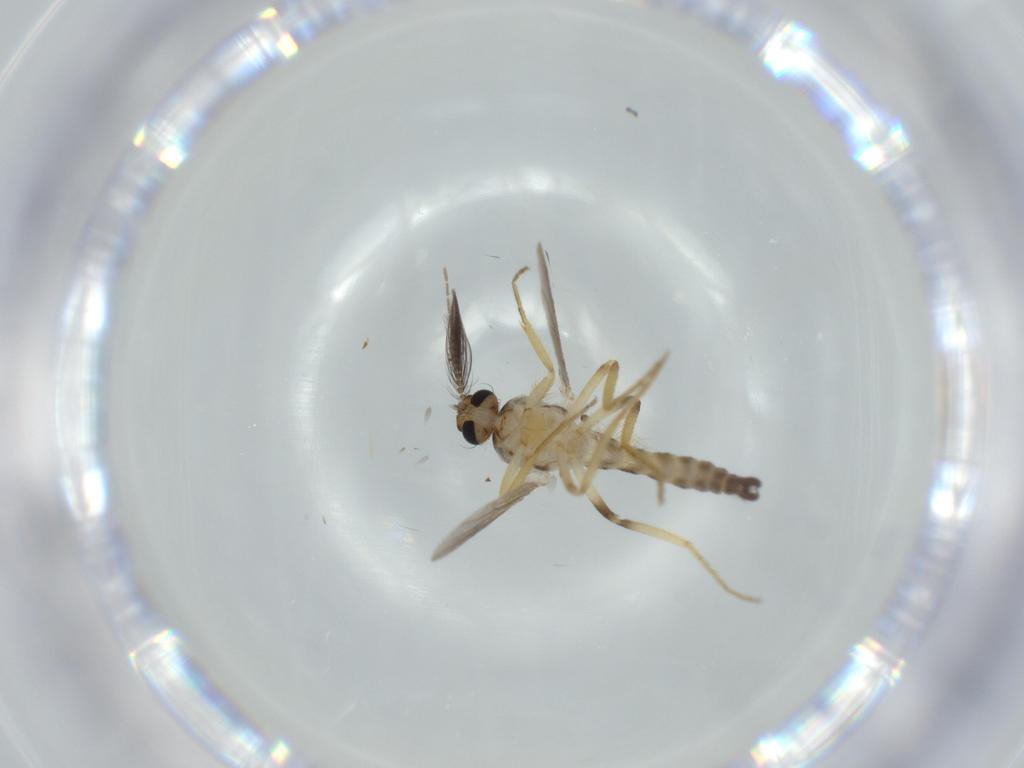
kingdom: Animalia
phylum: Arthropoda
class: Insecta
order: Diptera
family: Ceratopogonidae
